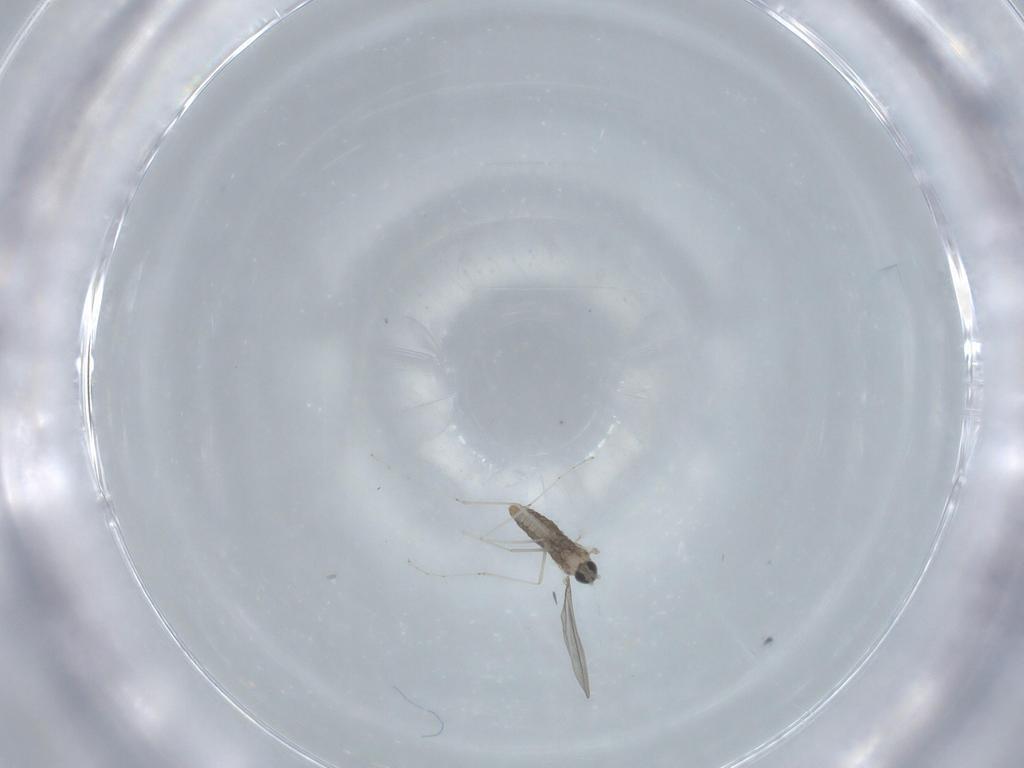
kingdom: Animalia
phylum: Arthropoda
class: Insecta
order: Diptera
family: Cecidomyiidae
